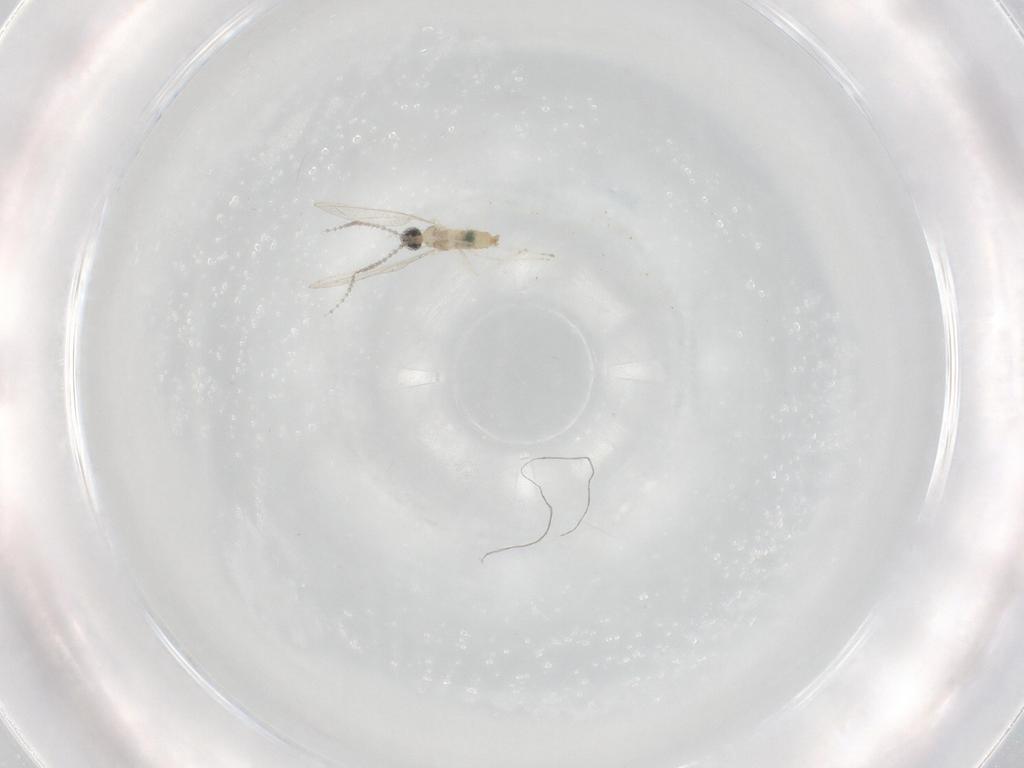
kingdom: Animalia
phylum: Arthropoda
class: Insecta
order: Diptera
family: Cecidomyiidae
